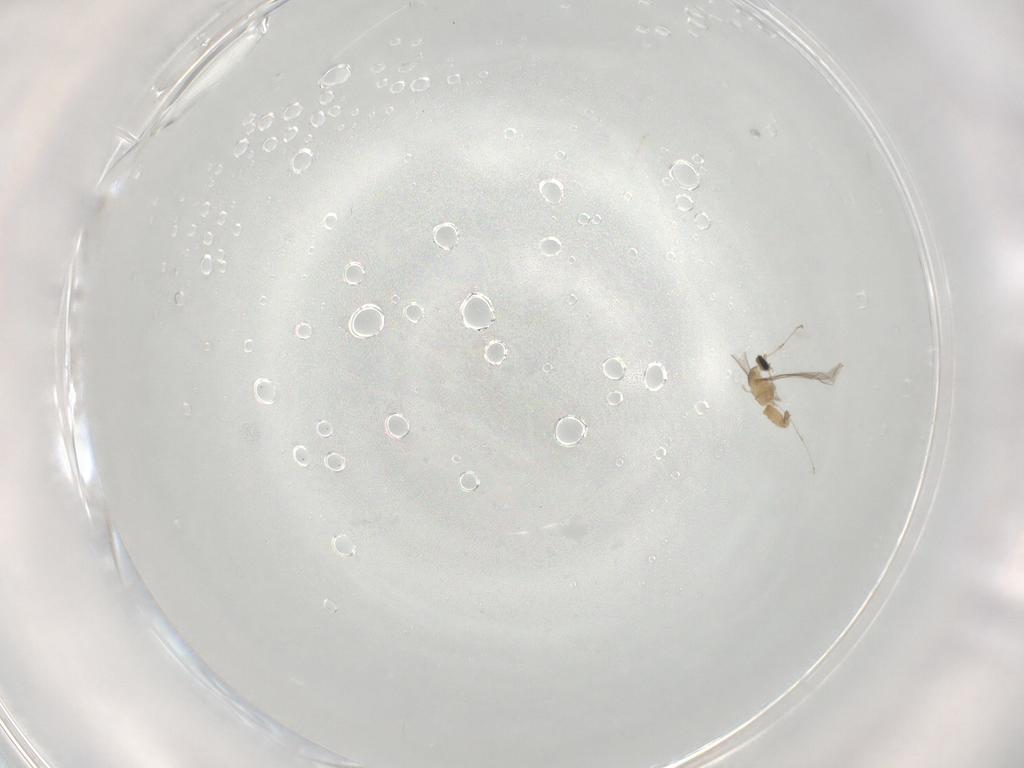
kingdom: Animalia
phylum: Arthropoda
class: Insecta
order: Diptera
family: Cecidomyiidae
